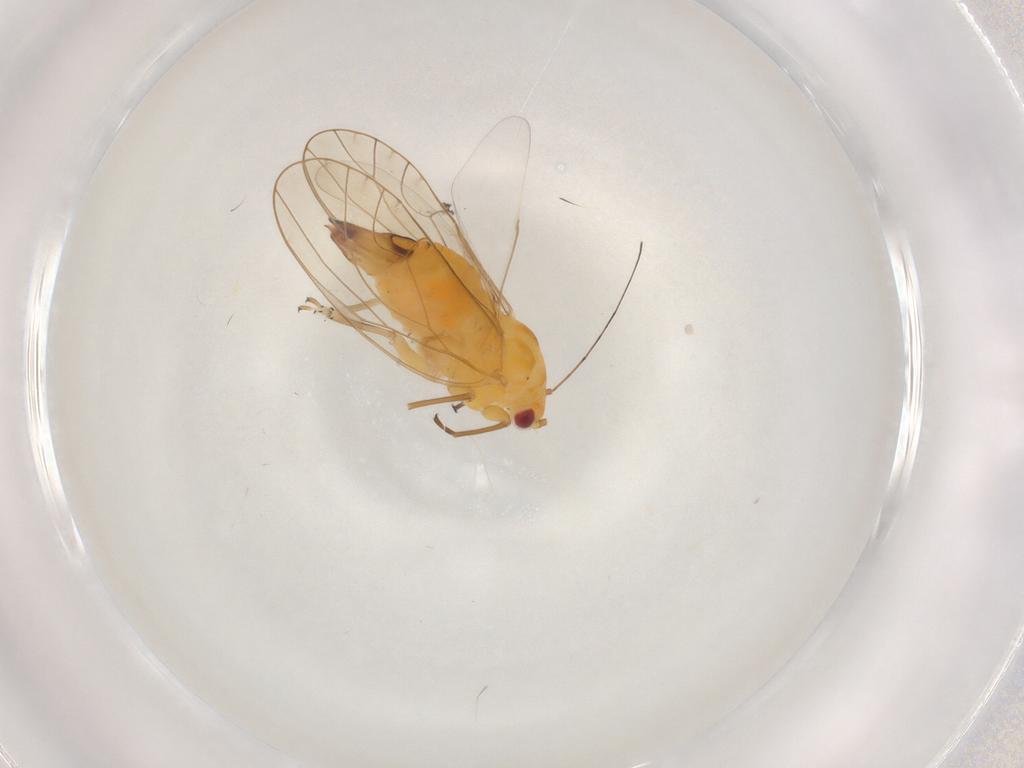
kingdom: Animalia
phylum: Arthropoda
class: Insecta
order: Hemiptera
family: Psyllidae
